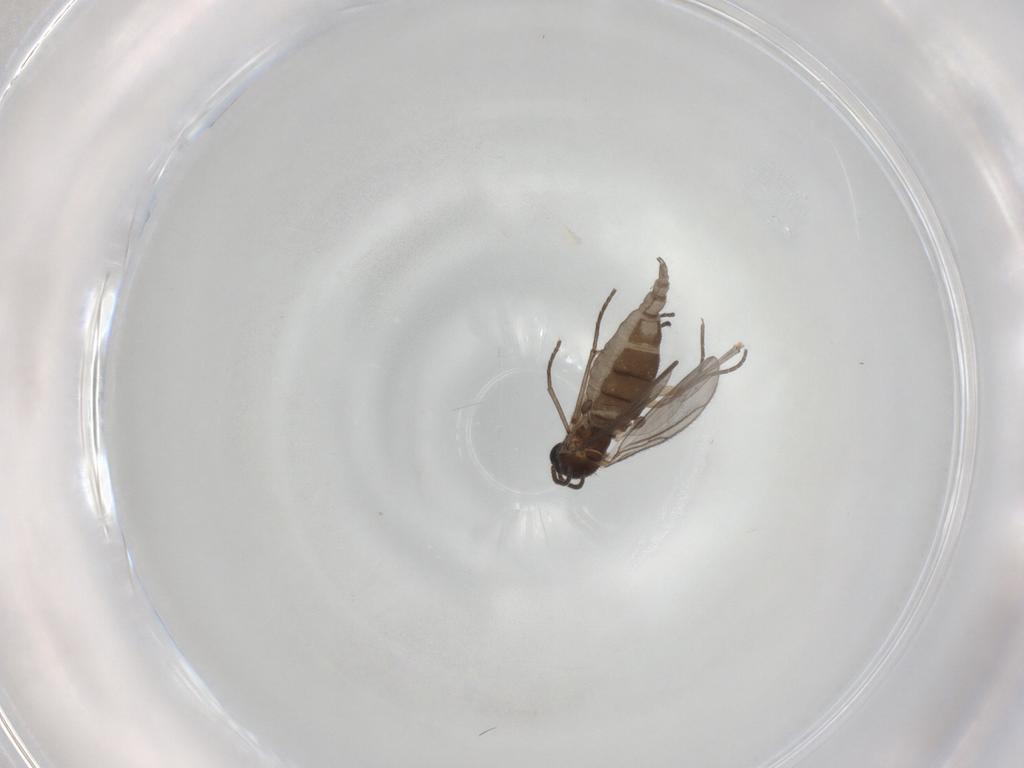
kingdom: Animalia
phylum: Arthropoda
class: Insecta
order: Diptera
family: Sciaridae
